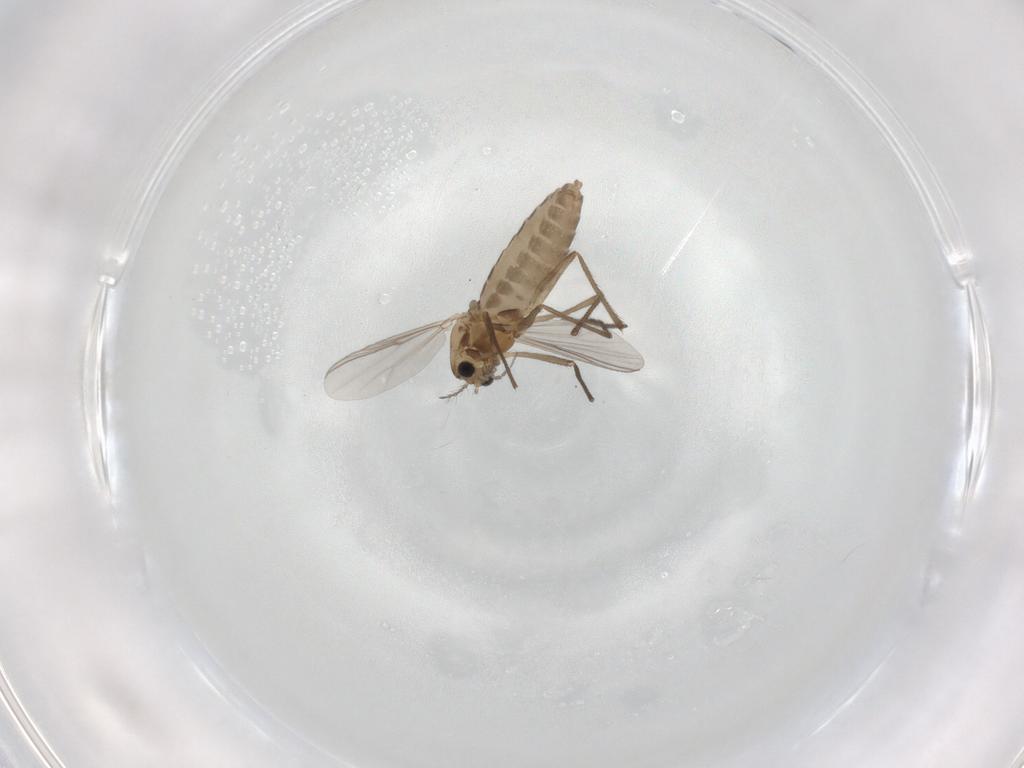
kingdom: Animalia
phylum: Arthropoda
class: Insecta
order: Diptera
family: Chironomidae
